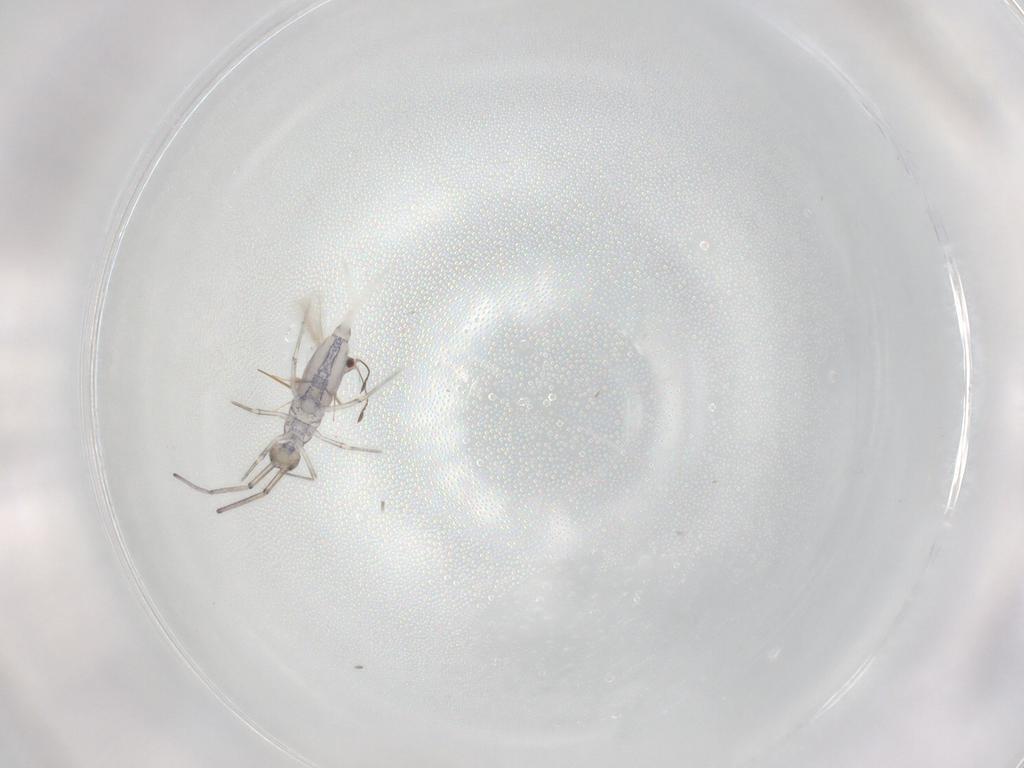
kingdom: Animalia
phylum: Arthropoda
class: Collembola
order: Entomobryomorpha
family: Entomobryidae
